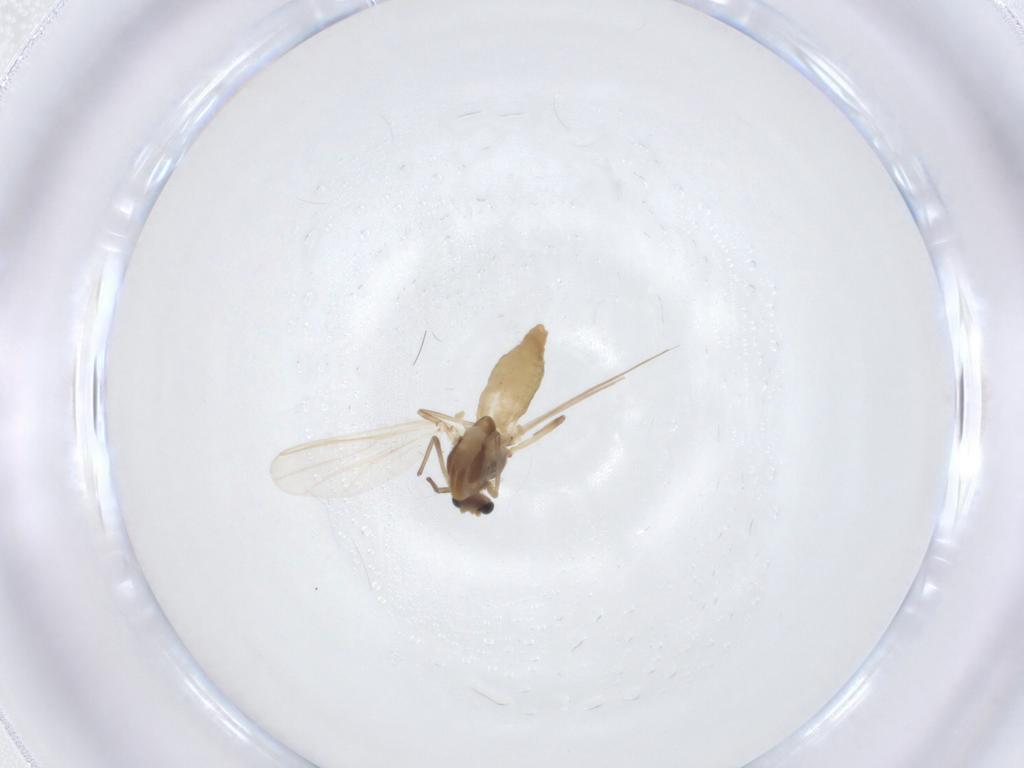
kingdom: Animalia
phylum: Arthropoda
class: Insecta
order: Diptera
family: Chironomidae
